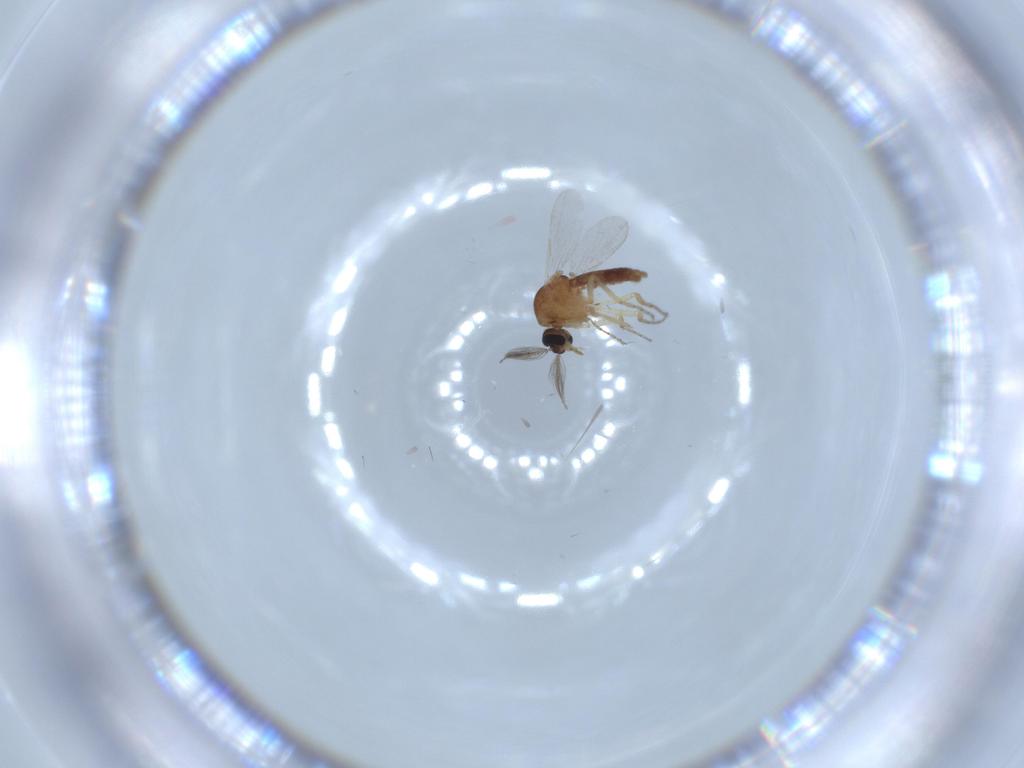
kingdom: Animalia
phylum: Arthropoda
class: Insecta
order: Diptera
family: Ceratopogonidae
